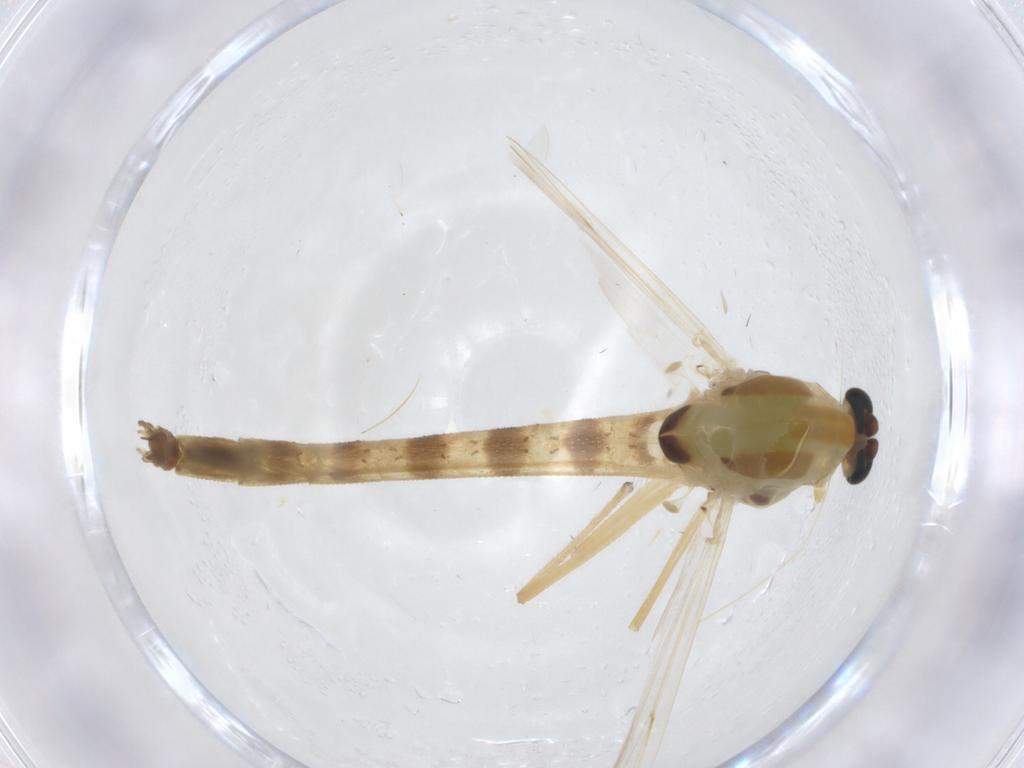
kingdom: Animalia
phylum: Arthropoda
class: Insecta
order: Diptera
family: Chironomidae
